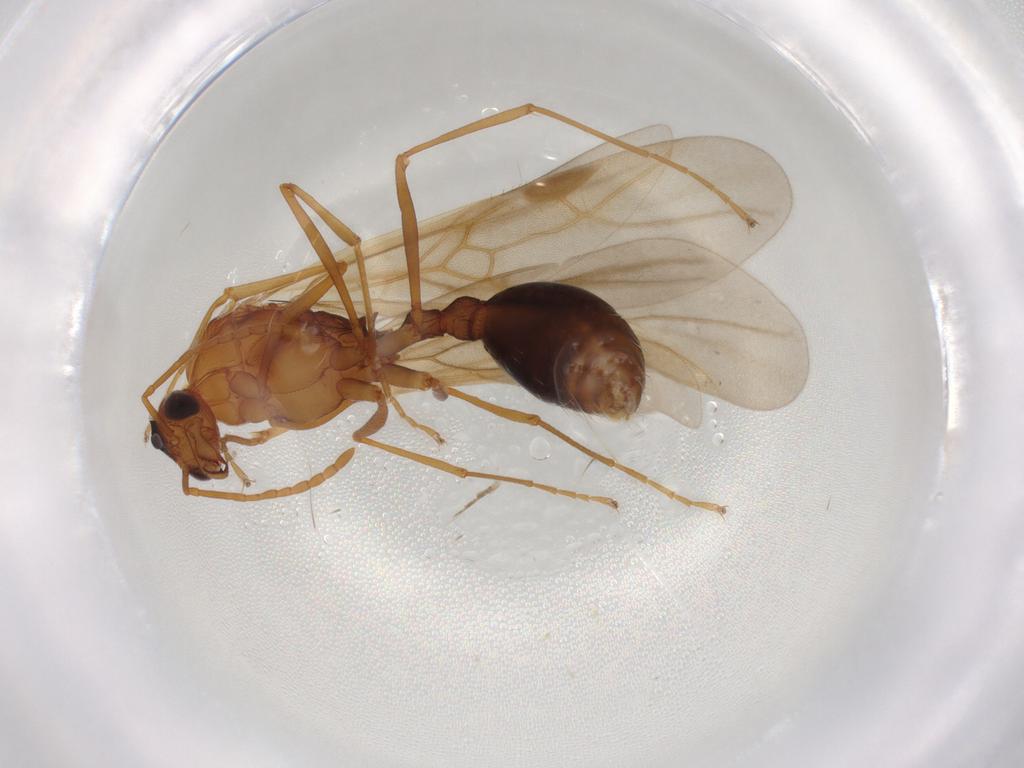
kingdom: Animalia
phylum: Arthropoda
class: Insecta
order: Hymenoptera
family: Formicidae
